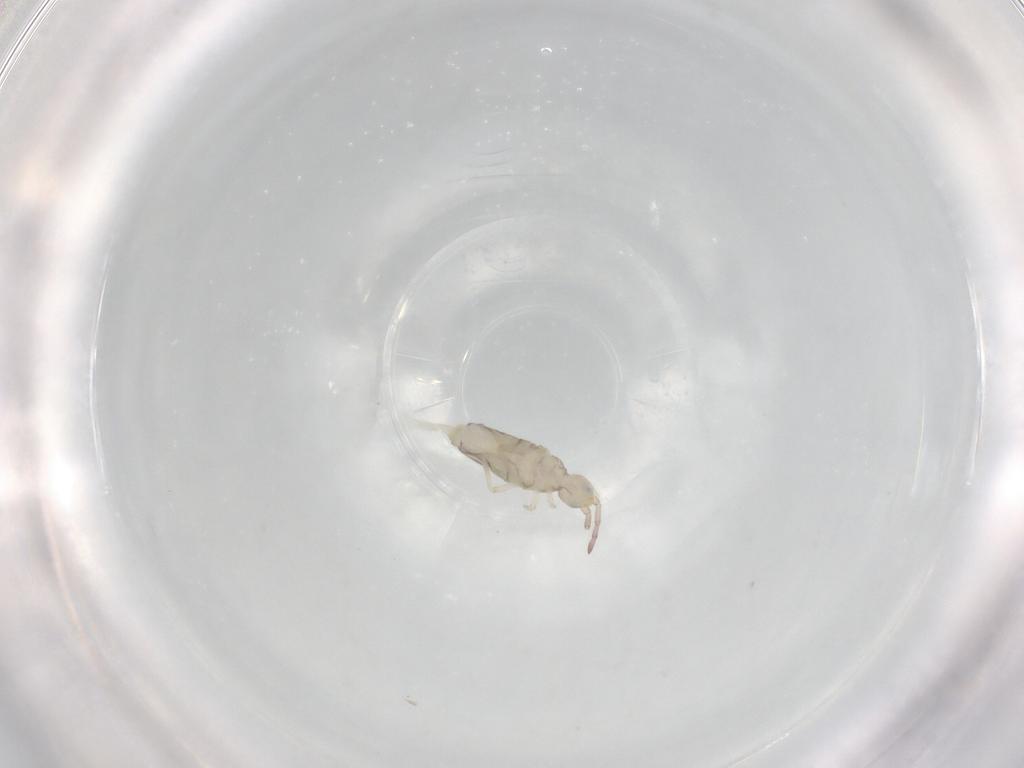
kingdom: Animalia
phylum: Arthropoda
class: Collembola
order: Entomobryomorpha
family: Entomobryidae
